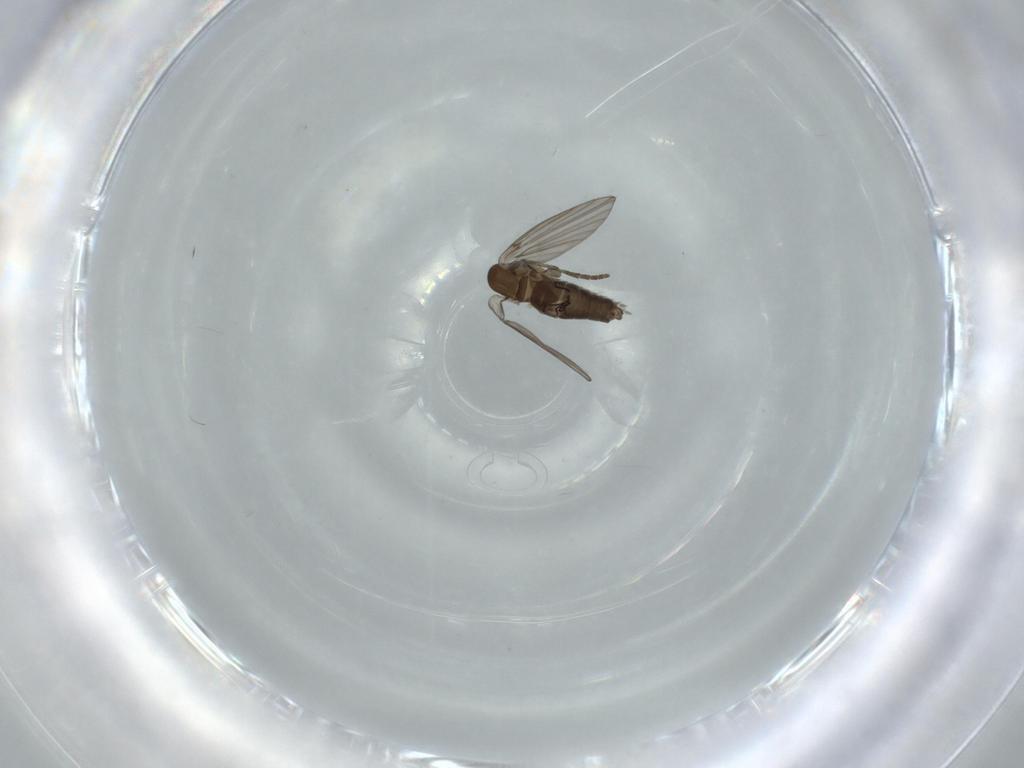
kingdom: Animalia
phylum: Arthropoda
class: Insecta
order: Diptera
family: Psychodidae
